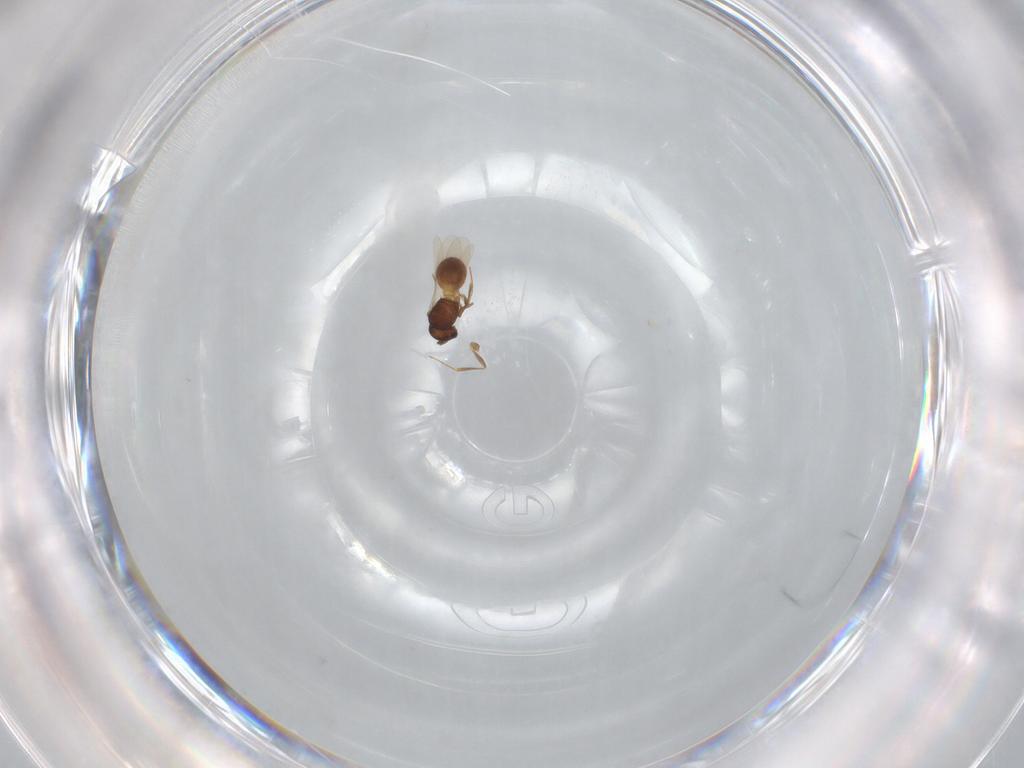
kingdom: Animalia
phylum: Arthropoda
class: Insecta
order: Hymenoptera
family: Scelionidae
